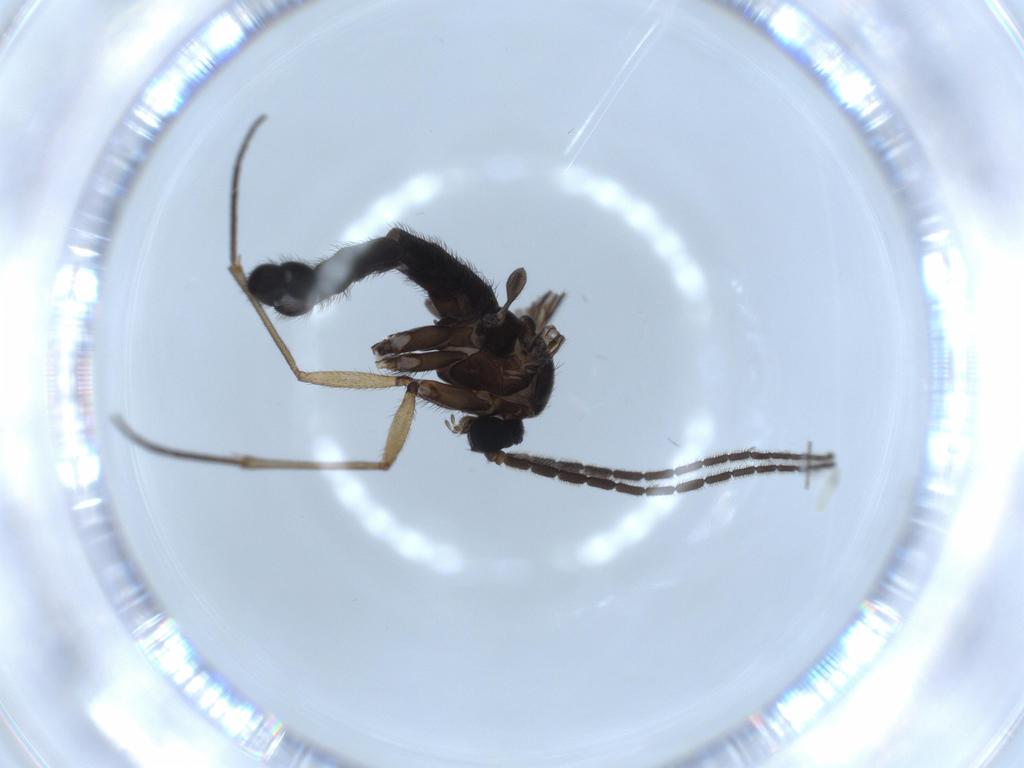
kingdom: Animalia
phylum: Arthropoda
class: Insecta
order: Diptera
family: Sciaridae
